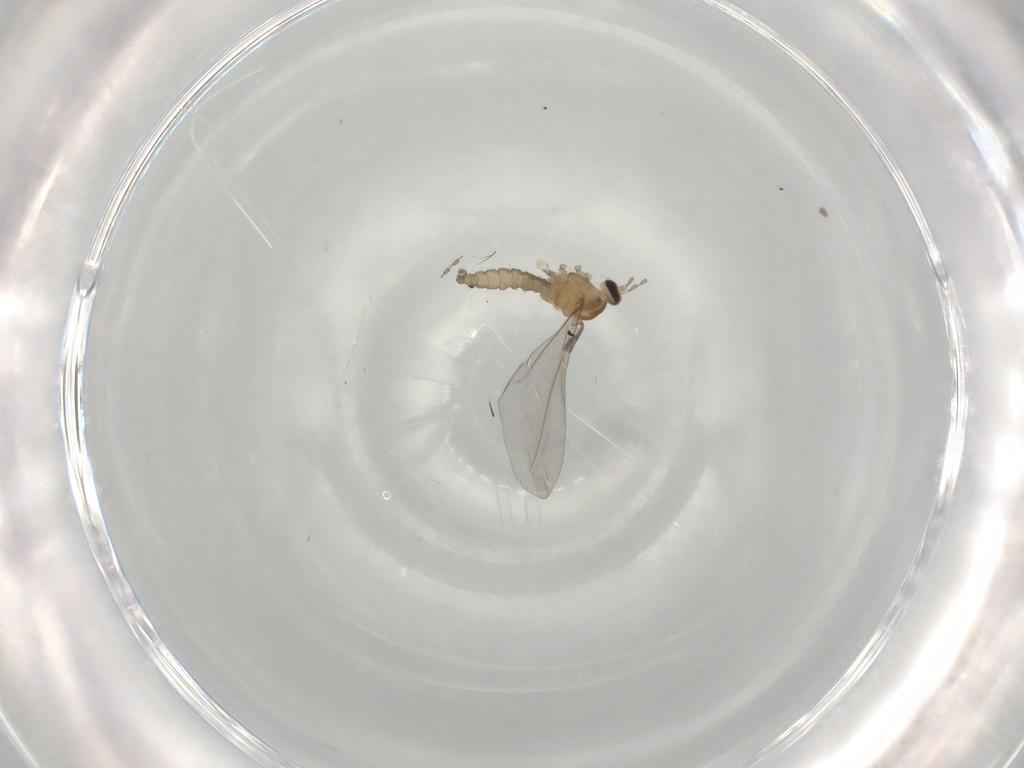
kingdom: Animalia
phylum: Arthropoda
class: Insecta
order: Diptera
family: Cecidomyiidae
